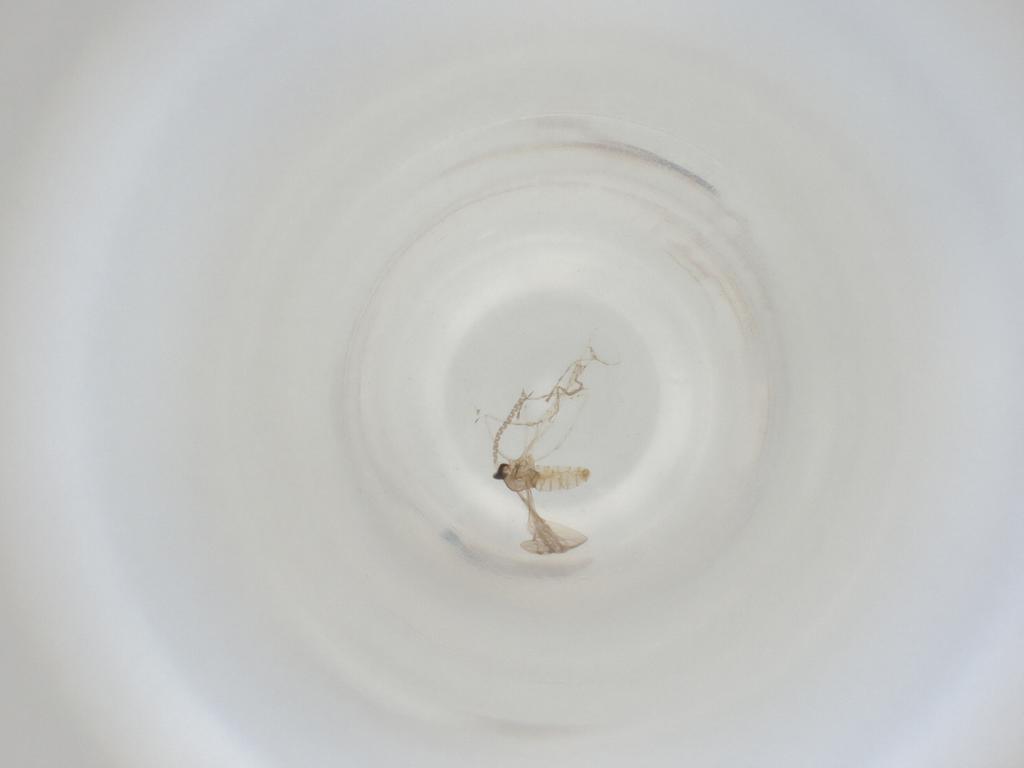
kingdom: Animalia
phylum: Arthropoda
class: Insecta
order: Diptera
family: Cecidomyiidae
